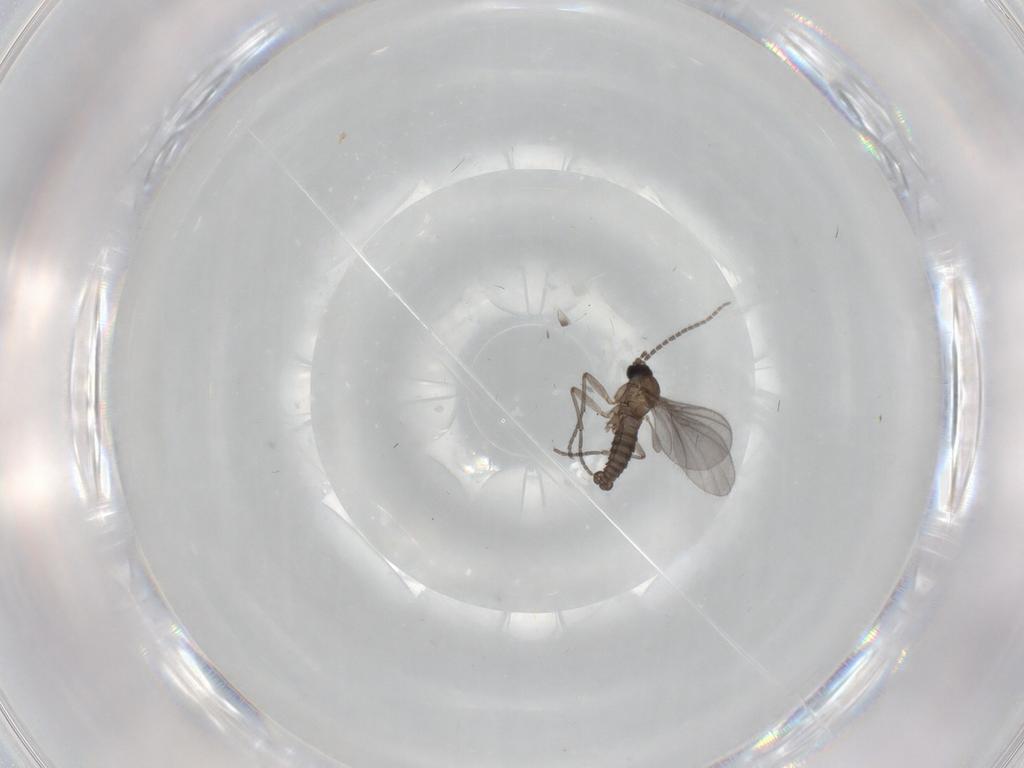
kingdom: Animalia
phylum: Arthropoda
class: Insecta
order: Diptera
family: Sciaridae
